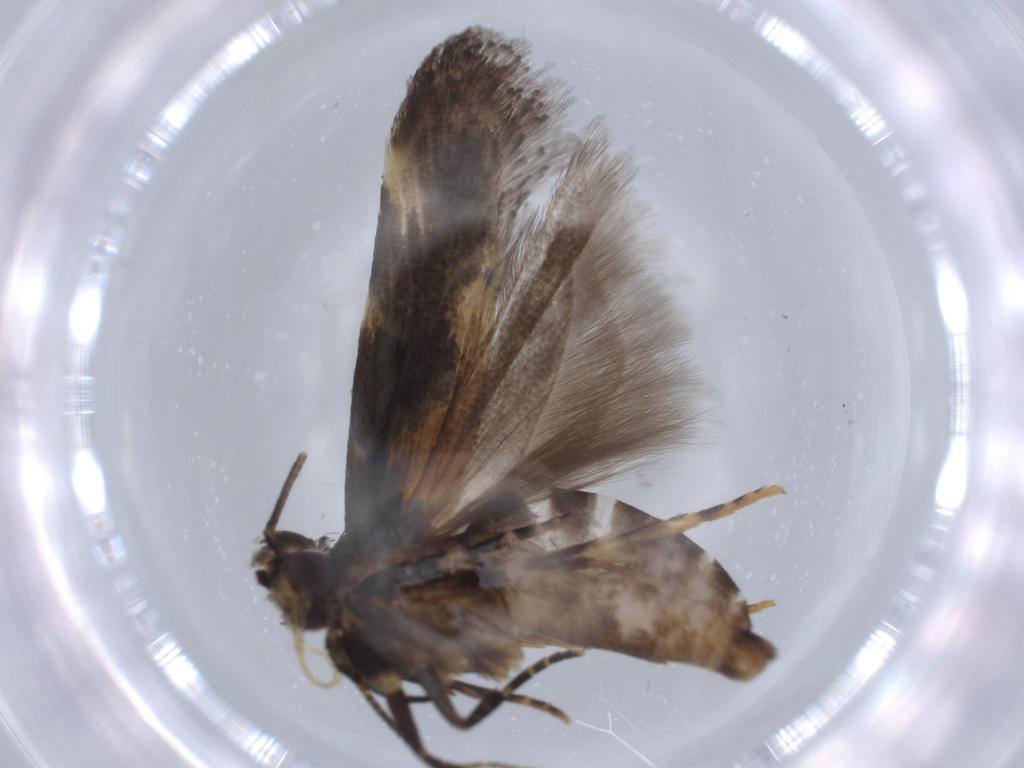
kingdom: Animalia
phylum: Arthropoda
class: Insecta
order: Lepidoptera
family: Gelechiidae
